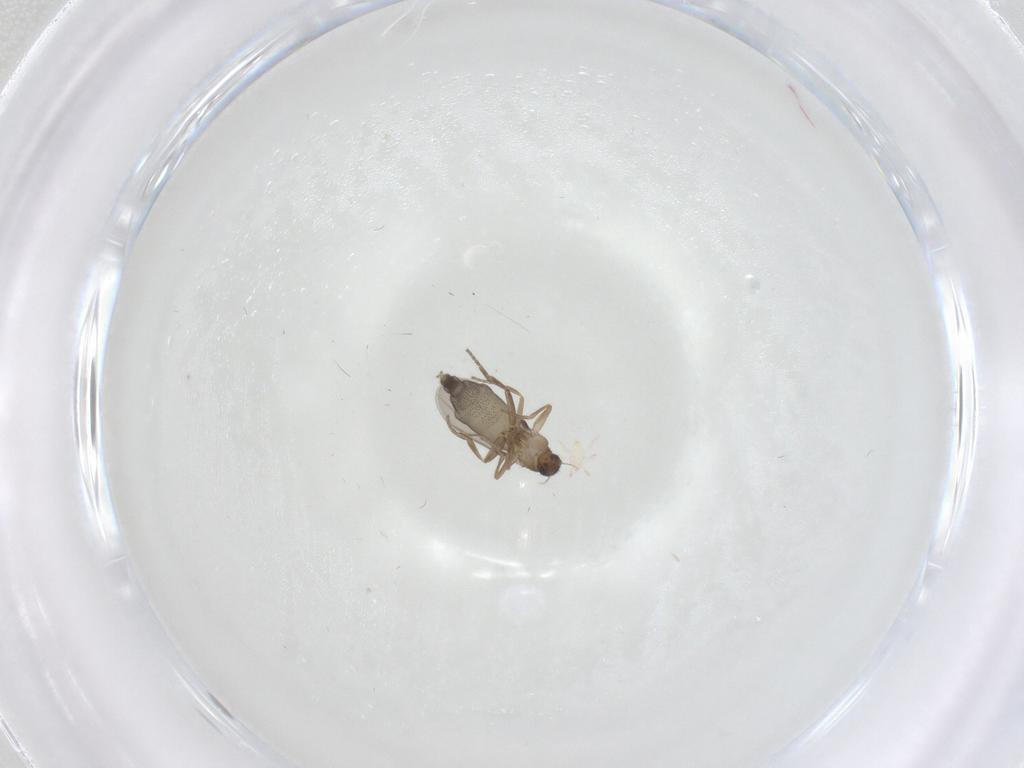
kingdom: Animalia
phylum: Arthropoda
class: Insecta
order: Diptera
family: Phoridae
